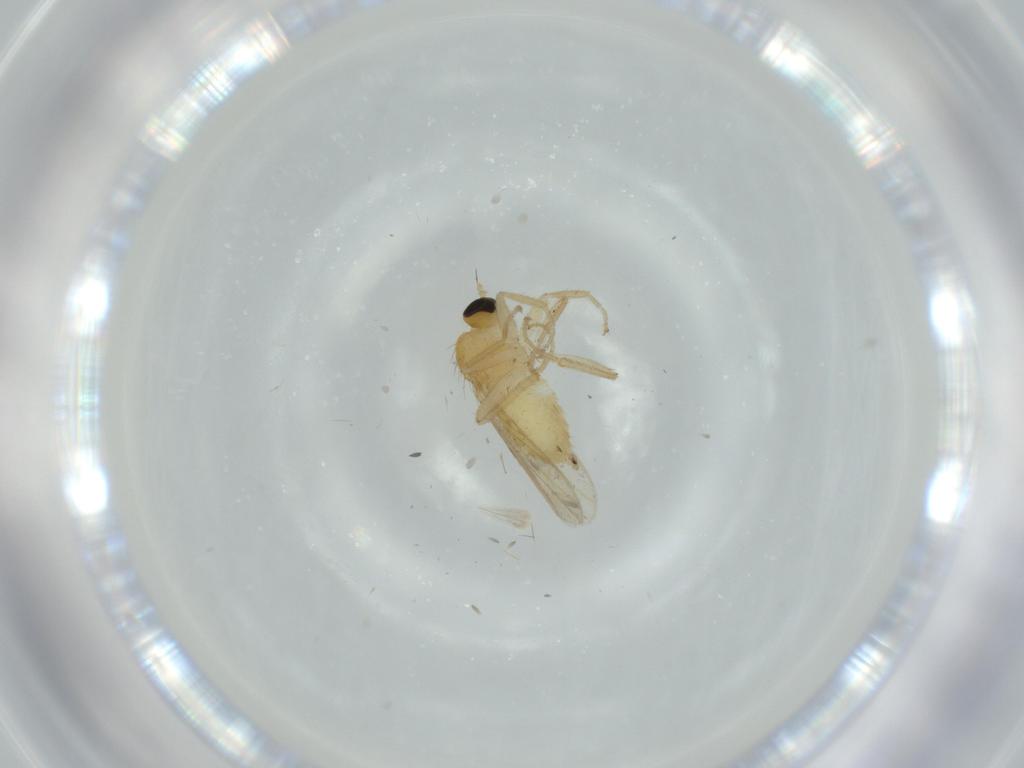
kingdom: Animalia
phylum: Arthropoda
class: Insecta
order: Diptera
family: Hybotidae
